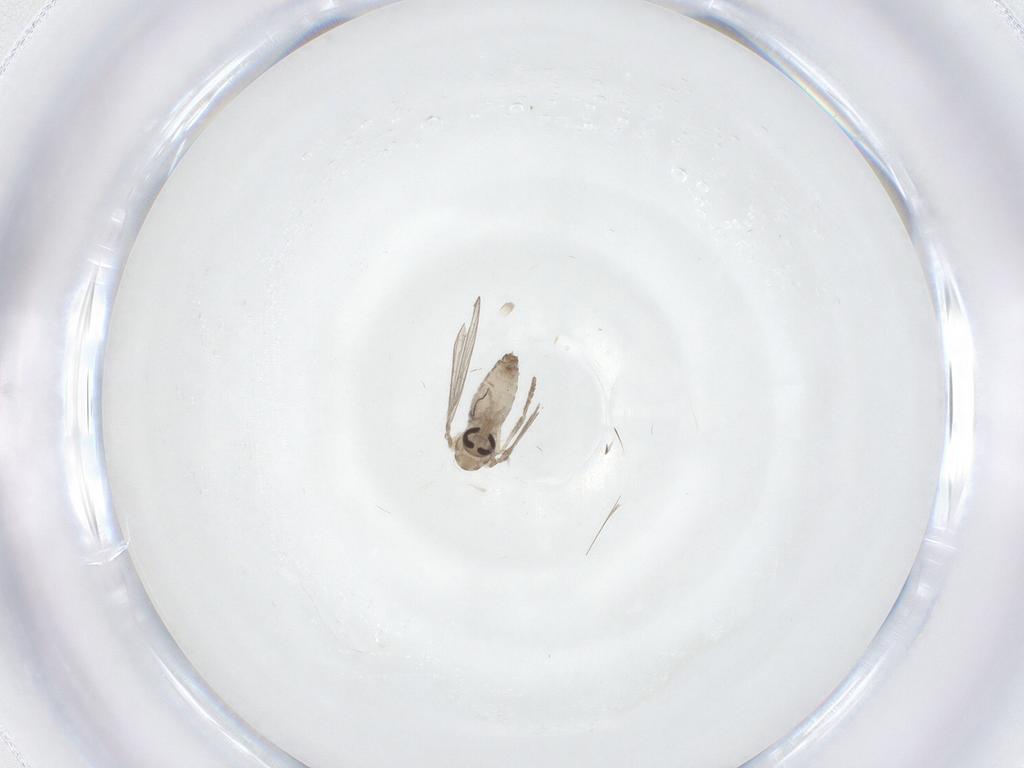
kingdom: Animalia
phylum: Arthropoda
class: Insecta
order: Diptera
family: Psychodidae
